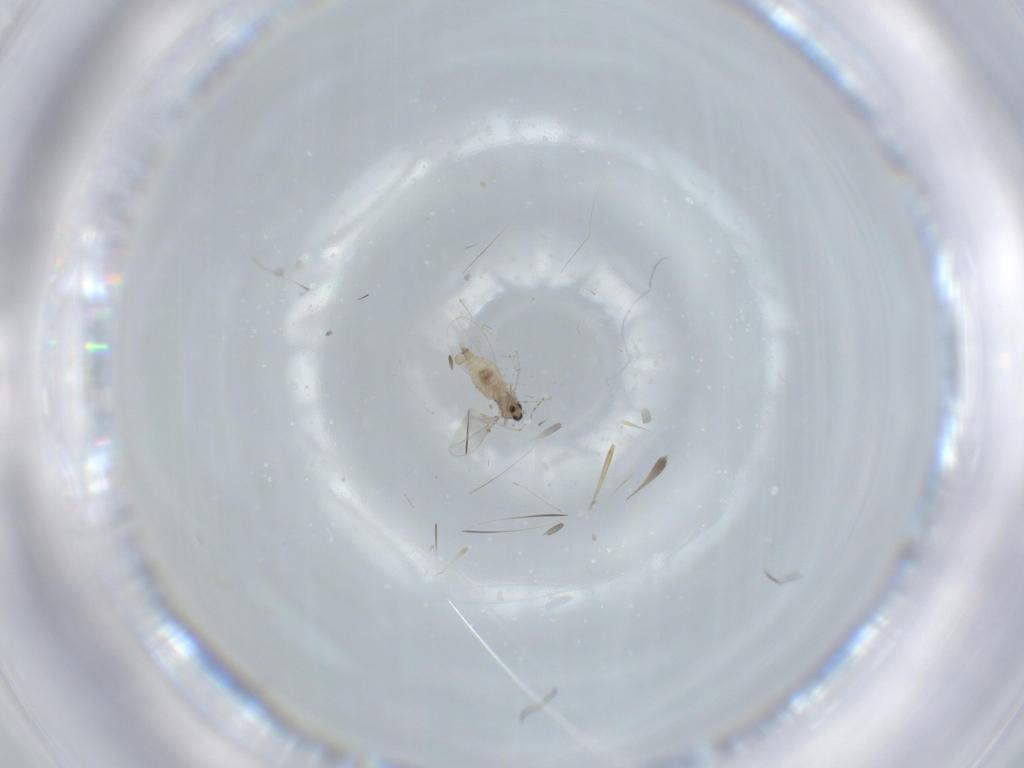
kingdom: Animalia
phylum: Arthropoda
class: Insecta
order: Diptera
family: Cecidomyiidae
